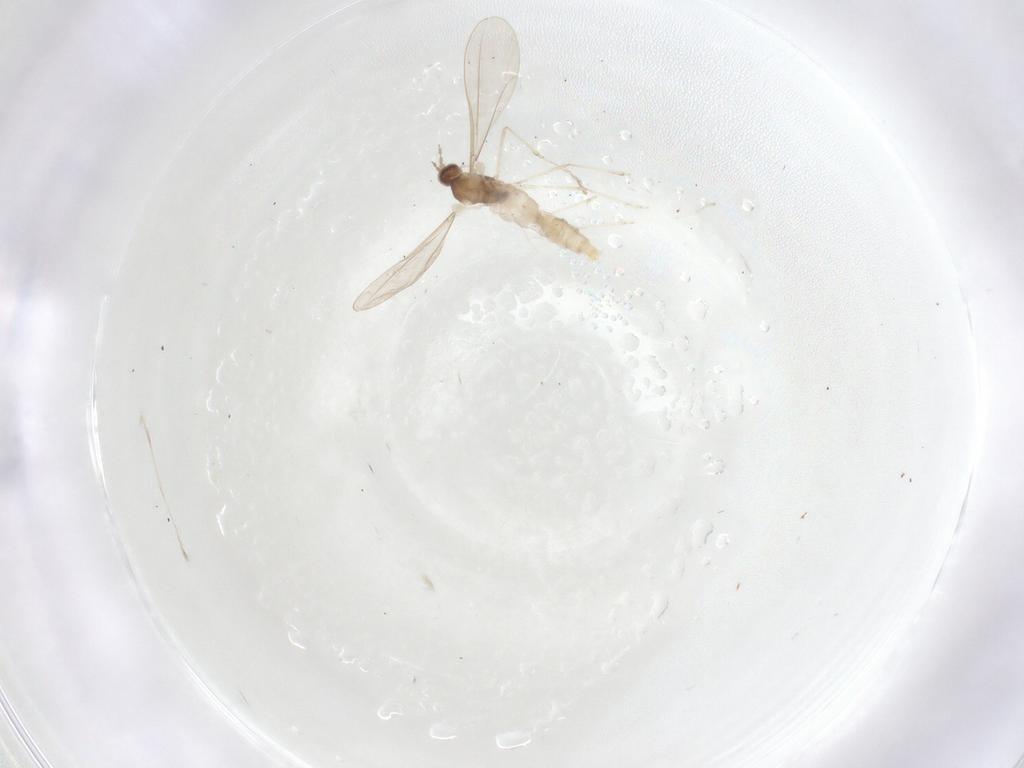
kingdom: Animalia
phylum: Arthropoda
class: Insecta
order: Diptera
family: Cecidomyiidae
